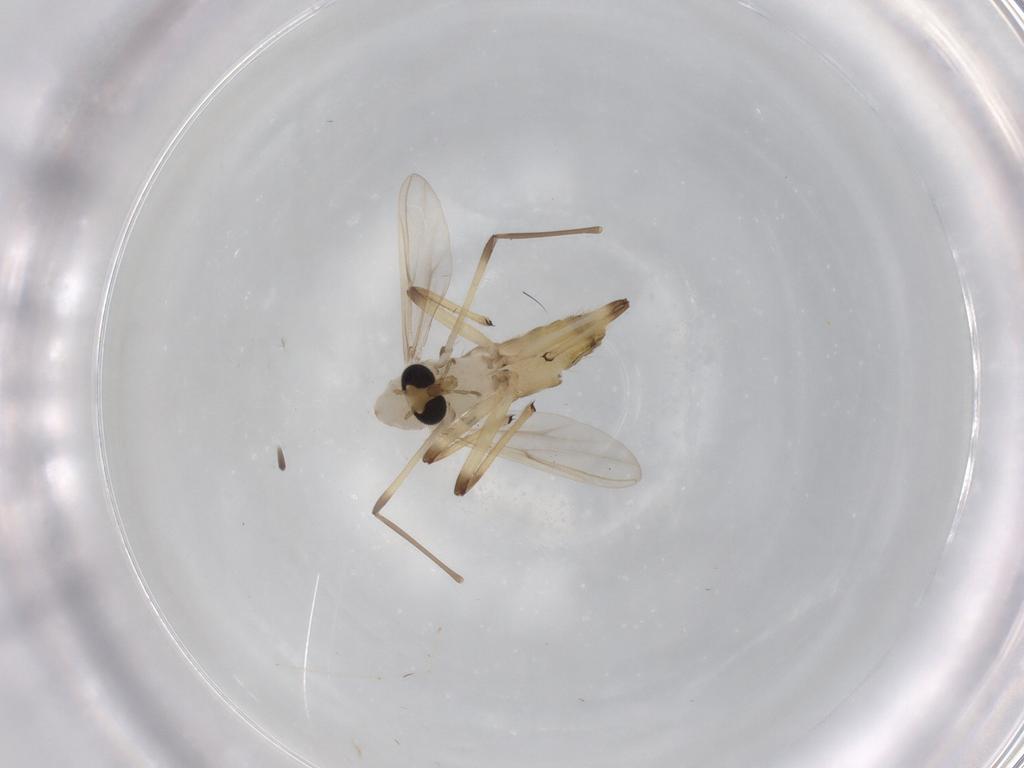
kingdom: Animalia
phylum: Arthropoda
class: Insecta
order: Diptera
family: Chironomidae
